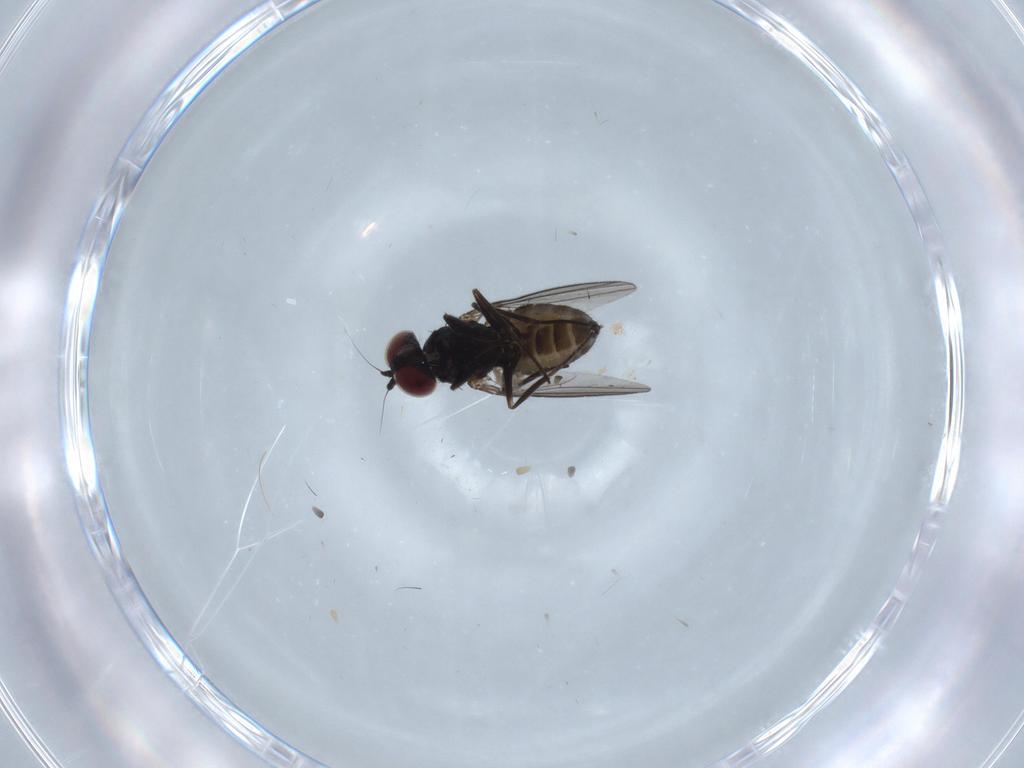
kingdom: Animalia
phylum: Arthropoda
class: Insecta
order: Diptera
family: Dolichopodidae
